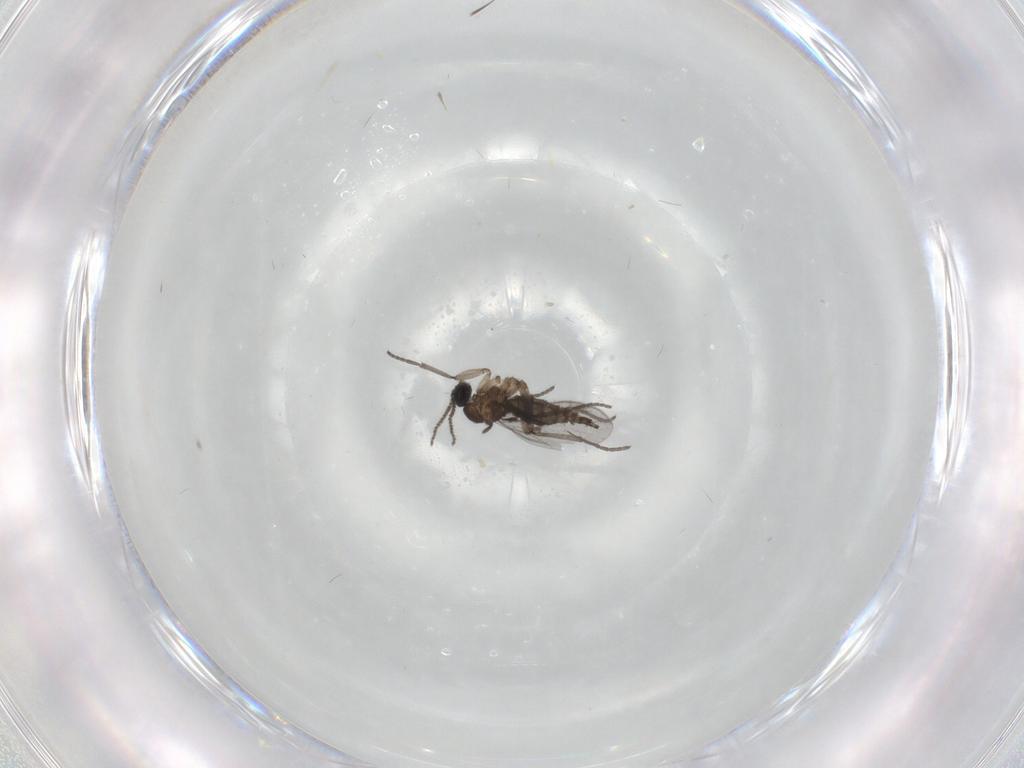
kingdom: Animalia
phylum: Arthropoda
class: Insecta
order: Diptera
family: Sciaridae
